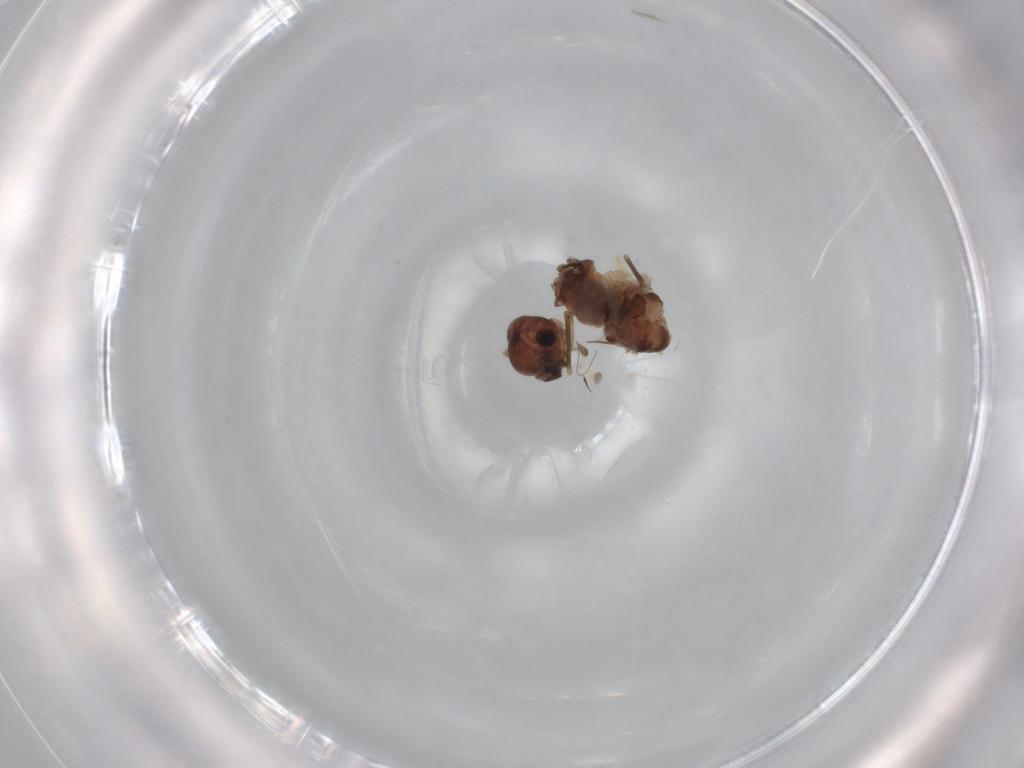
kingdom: Animalia
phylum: Arthropoda
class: Insecta
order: Psocodea
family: Peripsocidae
